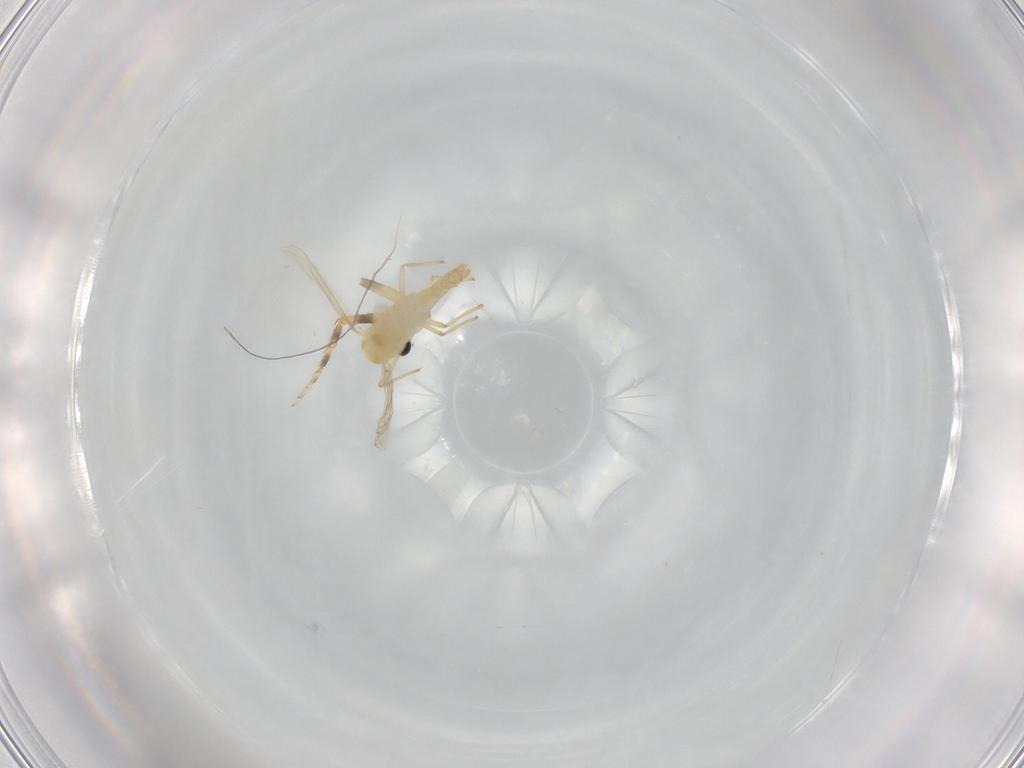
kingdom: Animalia
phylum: Arthropoda
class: Insecta
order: Diptera
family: Chironomidae
